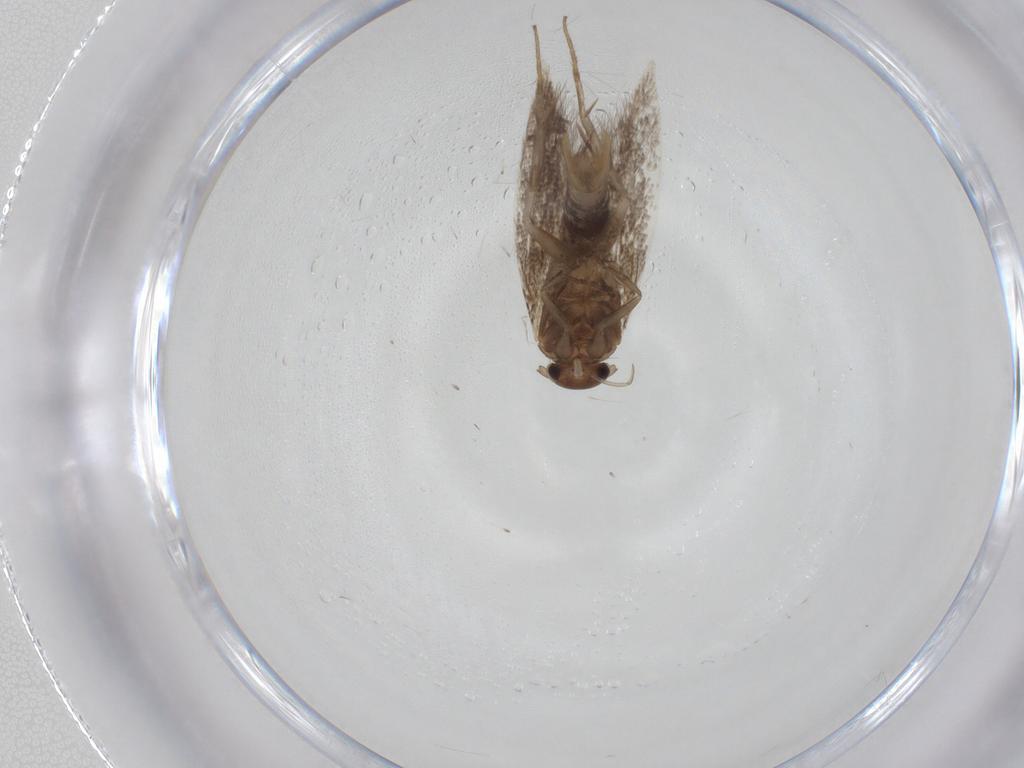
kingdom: Animalia
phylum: Arthropoda
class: Insecta
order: Lepidoptera
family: Elachistidae
